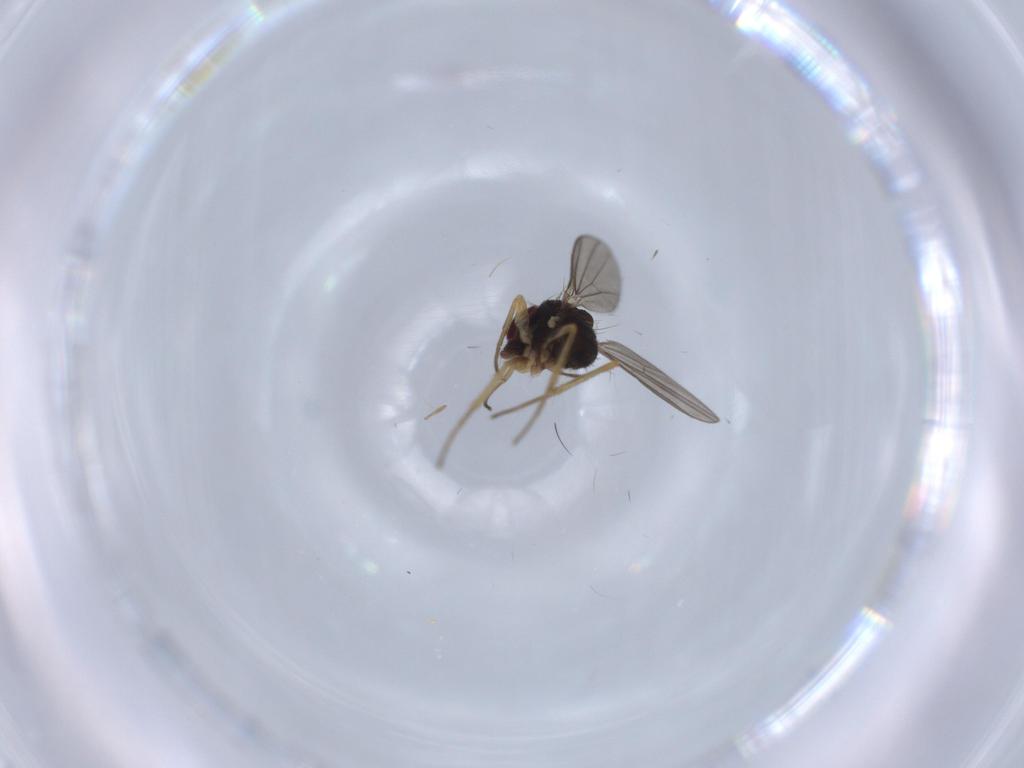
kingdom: Animalia
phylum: Arthropoda
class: Insecta
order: Diptera
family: Dolichopodidae
